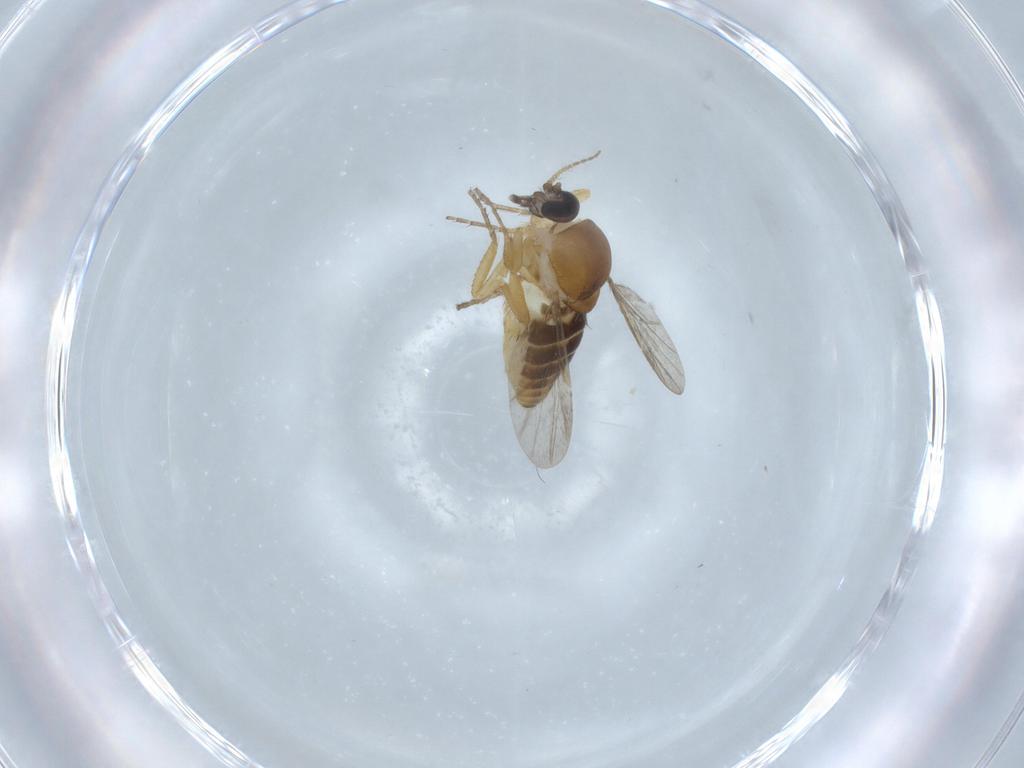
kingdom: Animalia
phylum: Arthropoda
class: Insecta
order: Diptera
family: Ceratopogonidae
